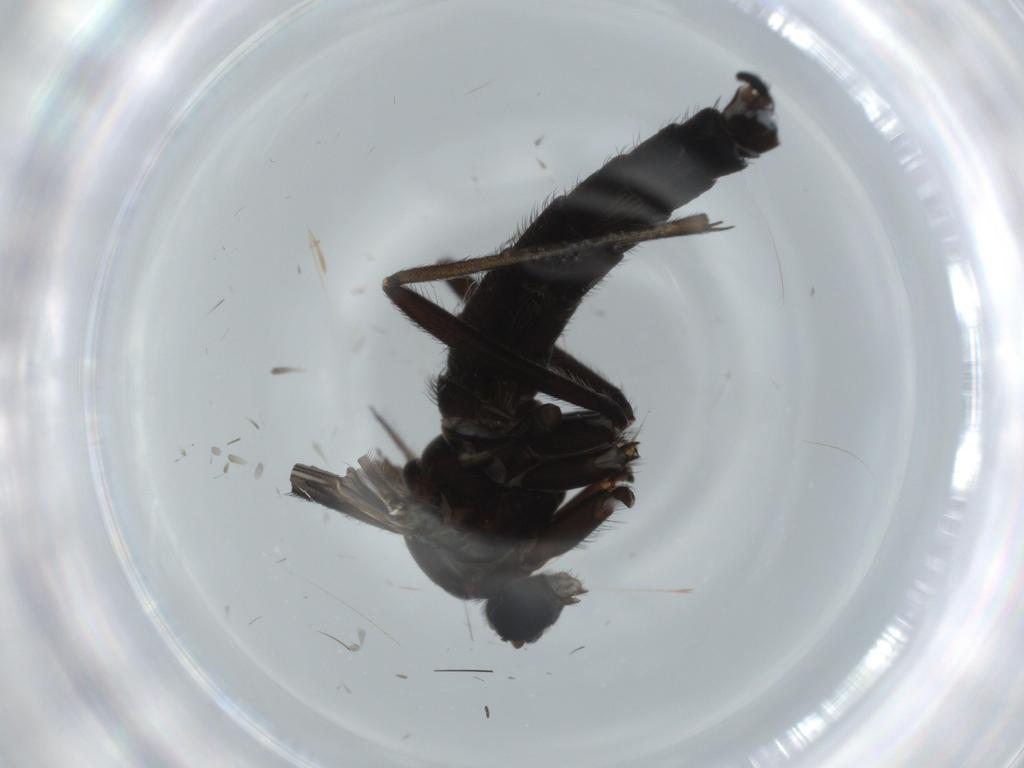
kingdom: Animalia
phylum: Arthropoda
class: Insecta
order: Diptera
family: Sciaridae
